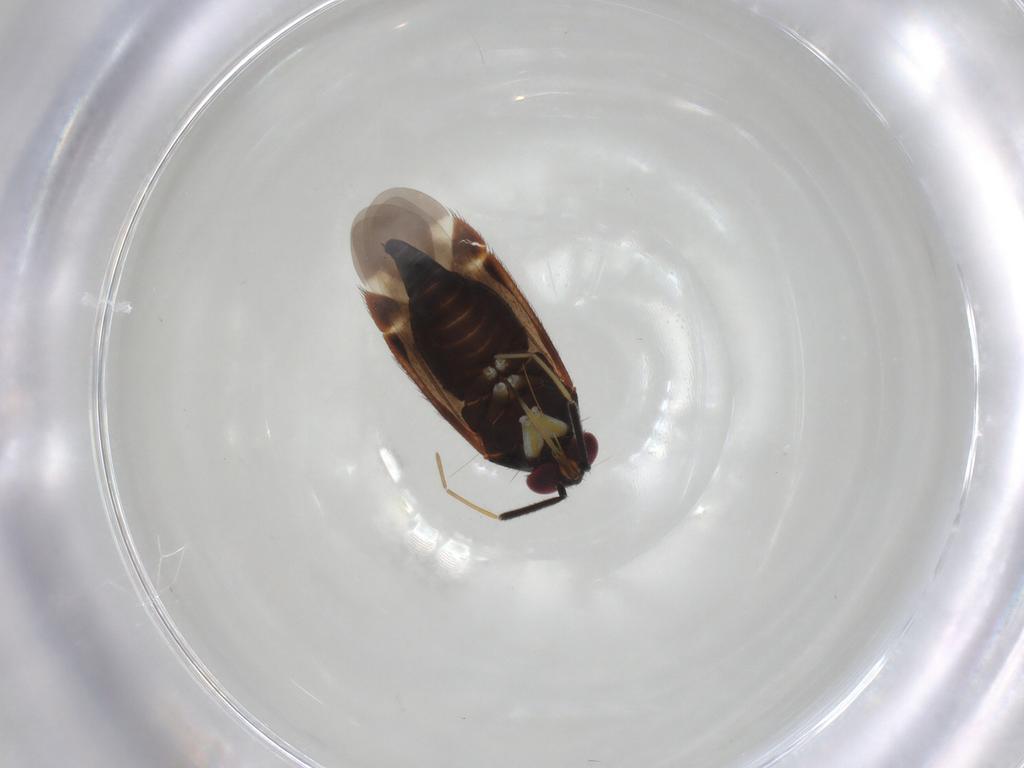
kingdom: Animalia
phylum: Arthropoda
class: Insecta
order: Hemiptera
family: Miridae
